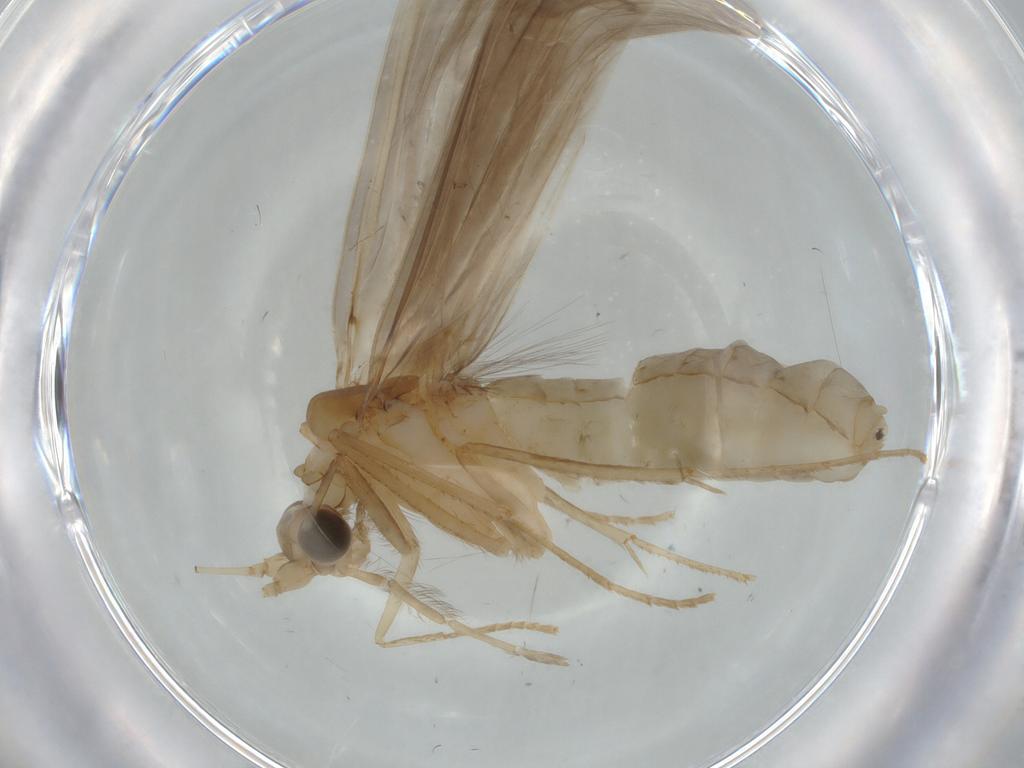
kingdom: Animalia
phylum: Arthropoda
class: Insecta
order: Trichoptera
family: Leptoceridae
